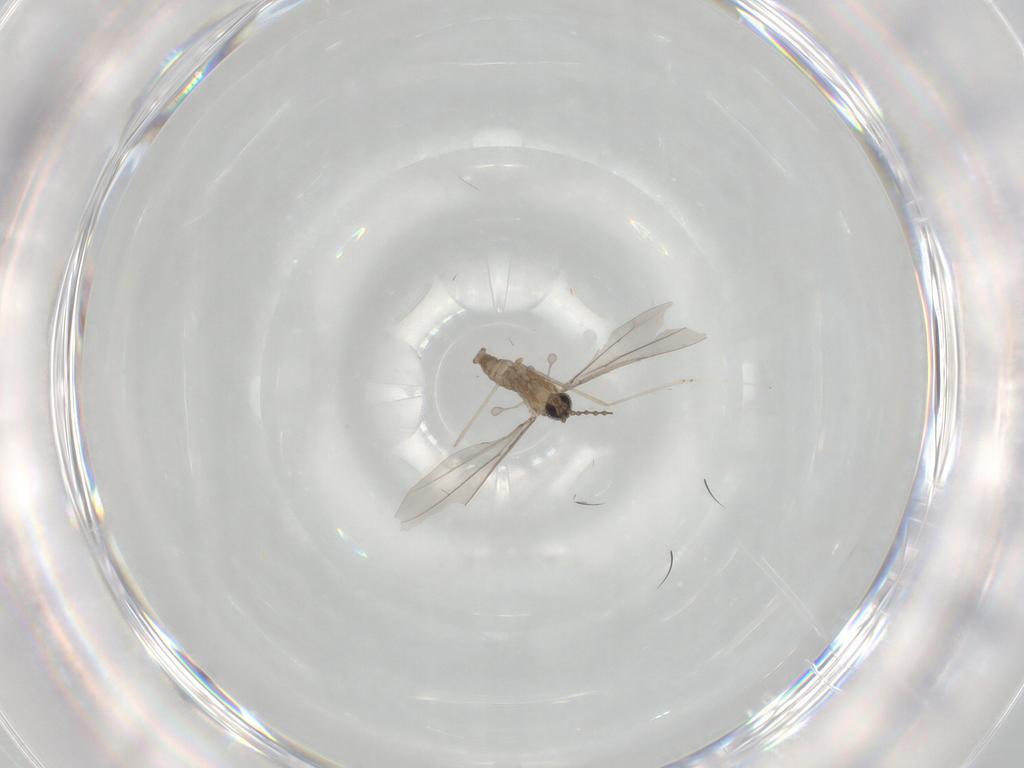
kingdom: Animalia
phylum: Arthropoda
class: Insecta
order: Diptera
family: Cecidomyiidae
